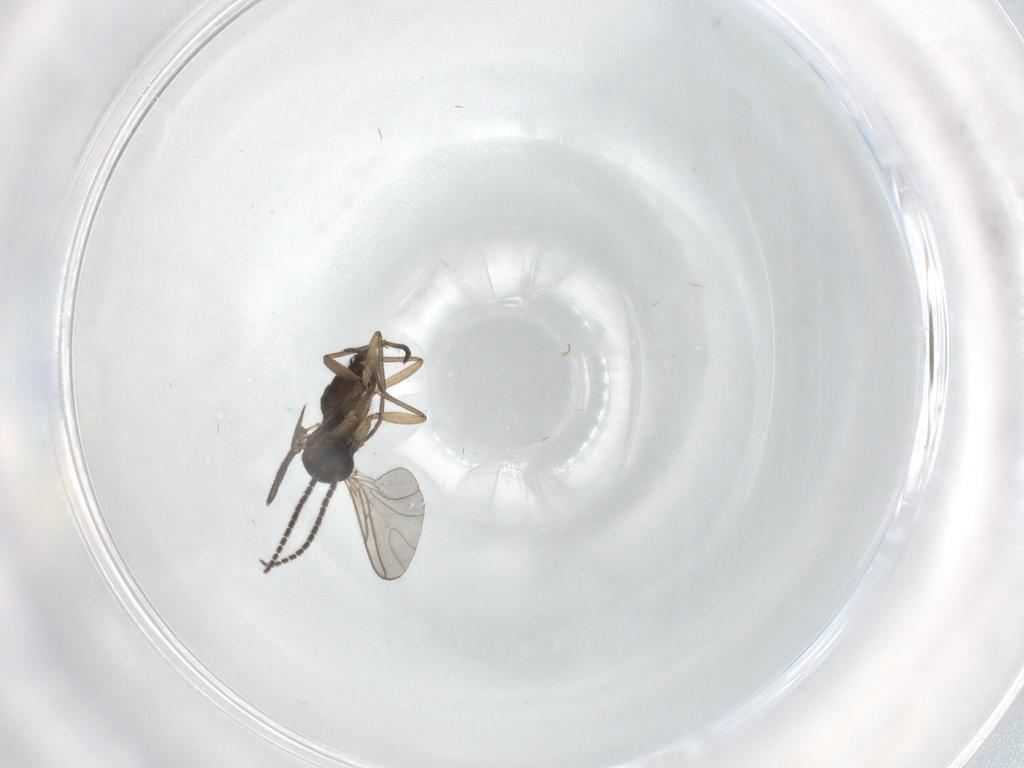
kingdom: Animalia
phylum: Arthropoda
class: Insecta
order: Diptera
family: Sciaridae
